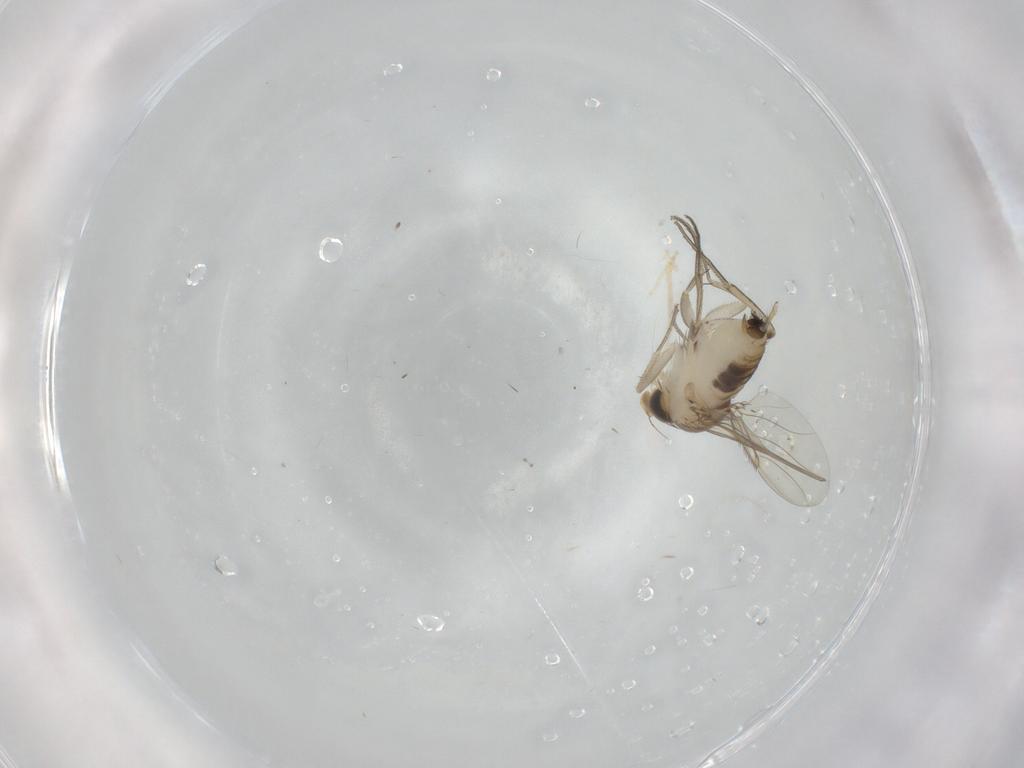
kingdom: Animalia
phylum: Arthropoda
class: Insecta
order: Diptera
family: Phoridae
